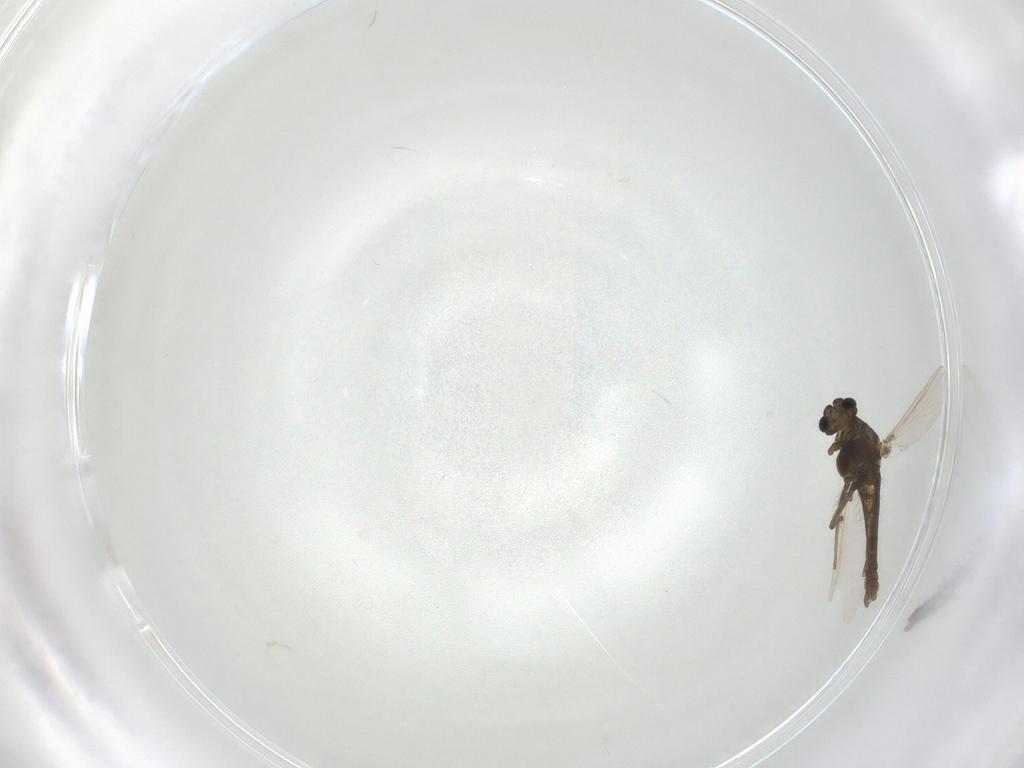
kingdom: Animalia
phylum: Arthropoda
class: Insecta
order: Diptera
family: Chironomidae
